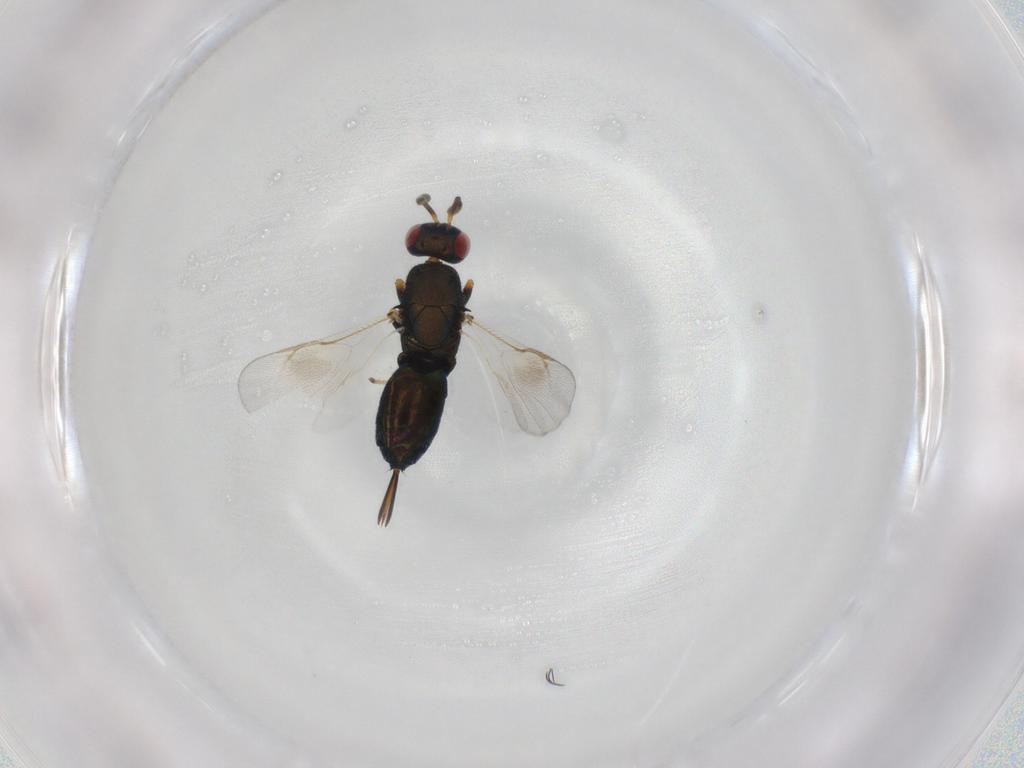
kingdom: Animalia
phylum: Arthropoda
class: Insecta
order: Hymenoptera
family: Torymidae
